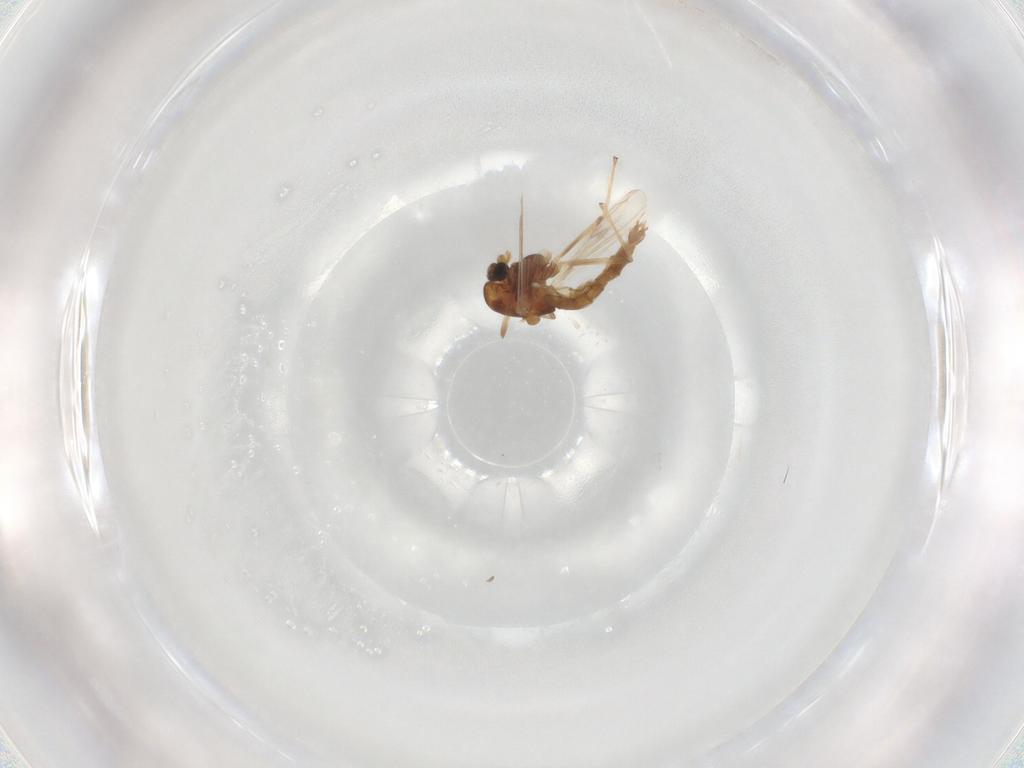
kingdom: Animalia
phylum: Arthropoda
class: Insecta
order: Diptera
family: Chironomidae
